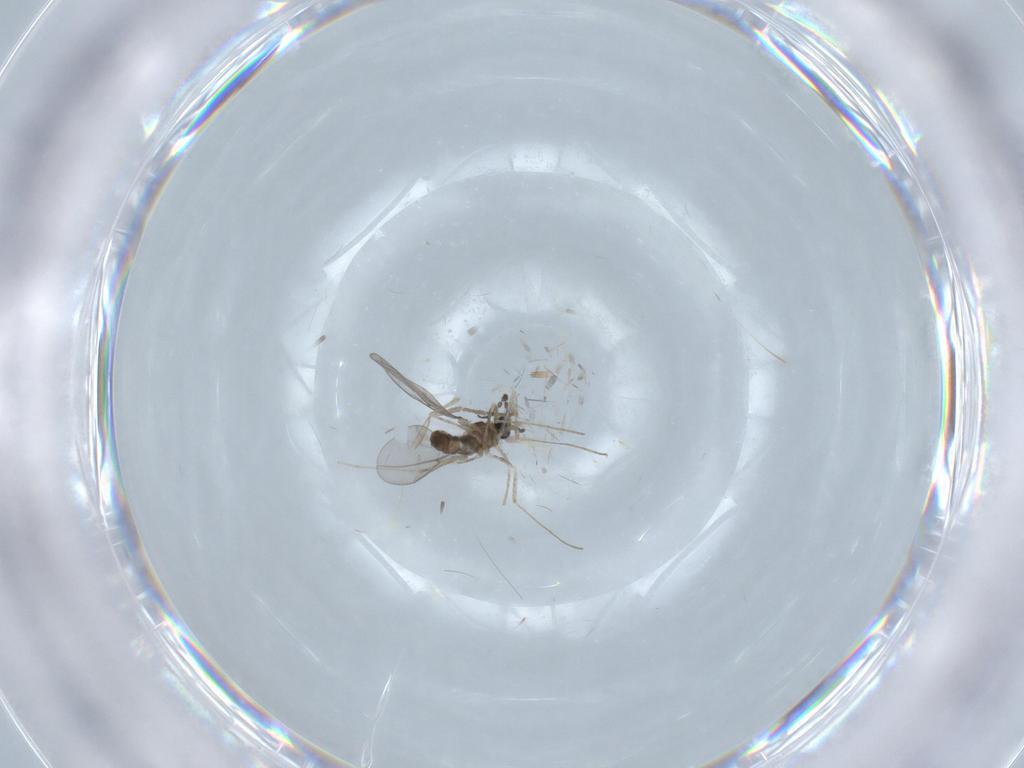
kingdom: Animalia
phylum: Arthropoda
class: Insecta
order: Diptera
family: Cecidomyiidae
